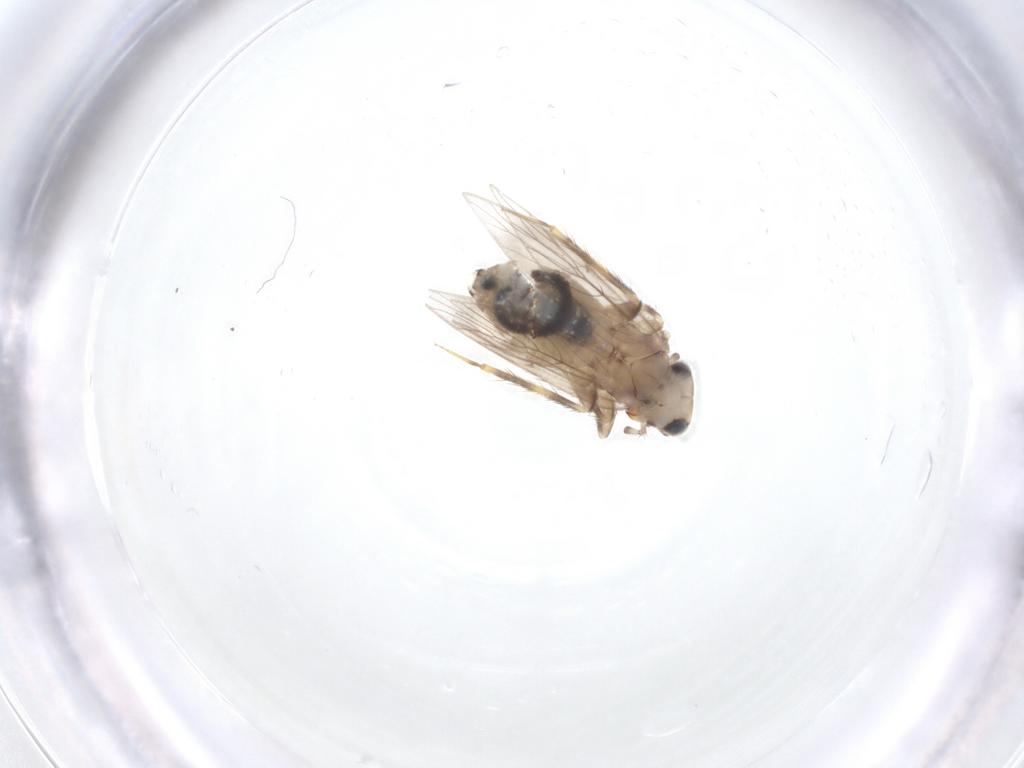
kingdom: Animalia
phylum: Arthropoda
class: Insecta
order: Psocodea
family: Lepidopsocidae
